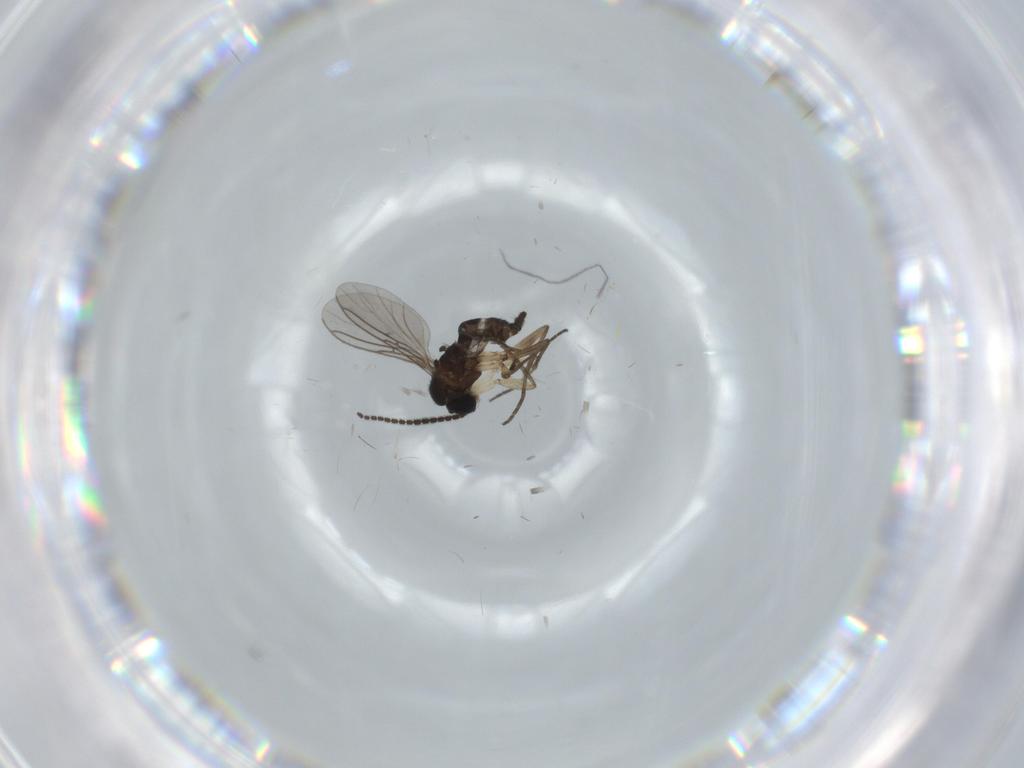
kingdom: Animalia
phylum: Arthropoda
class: Insecta
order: Diptera
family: Sciaridae
